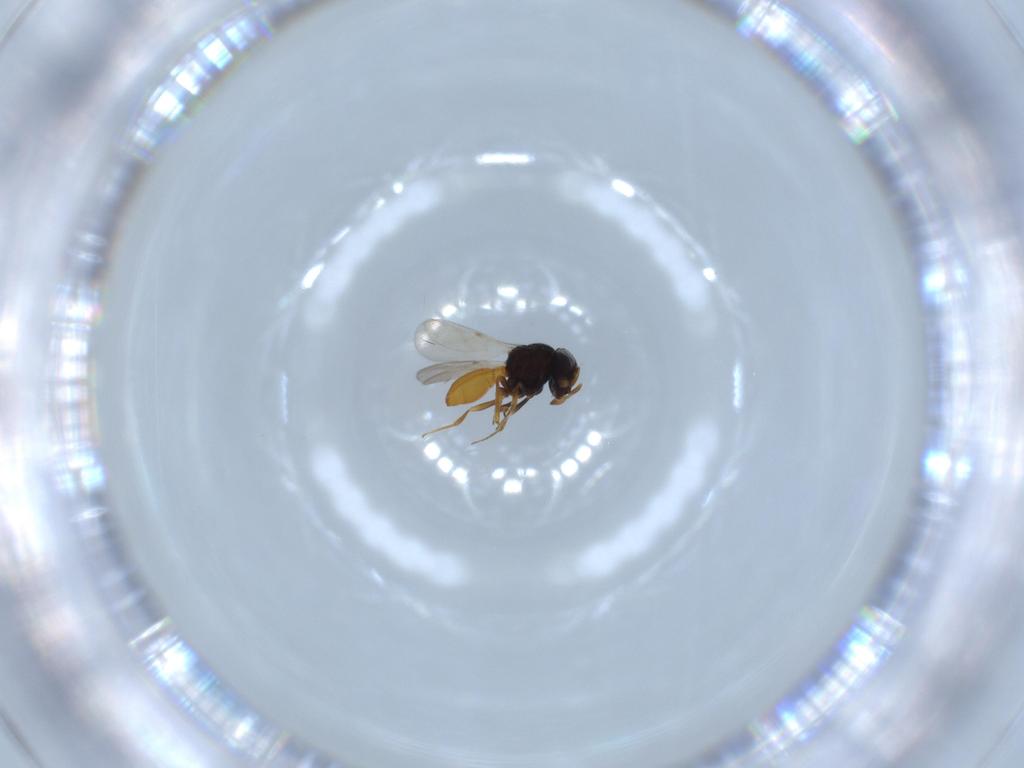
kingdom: Animalia
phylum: Arthropoda
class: Insecta
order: Hymenoptera
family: Scelionidae
